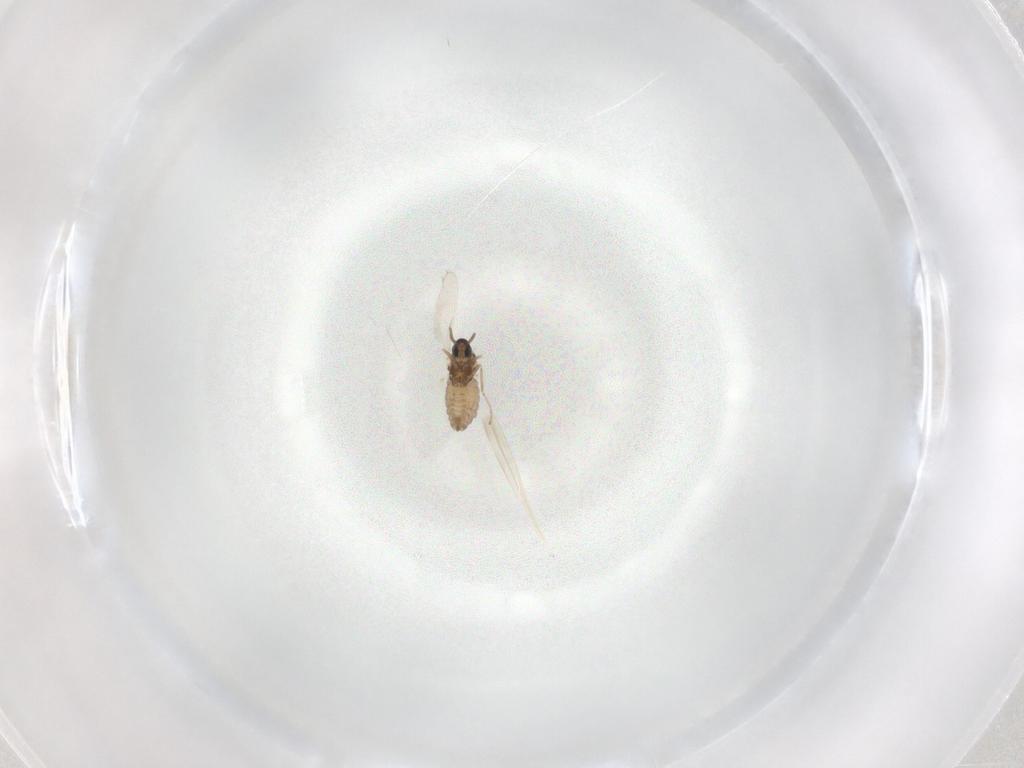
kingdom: Animalia
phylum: Arthropoda
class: Insecta
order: Diptera
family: Cecidomyiidae
